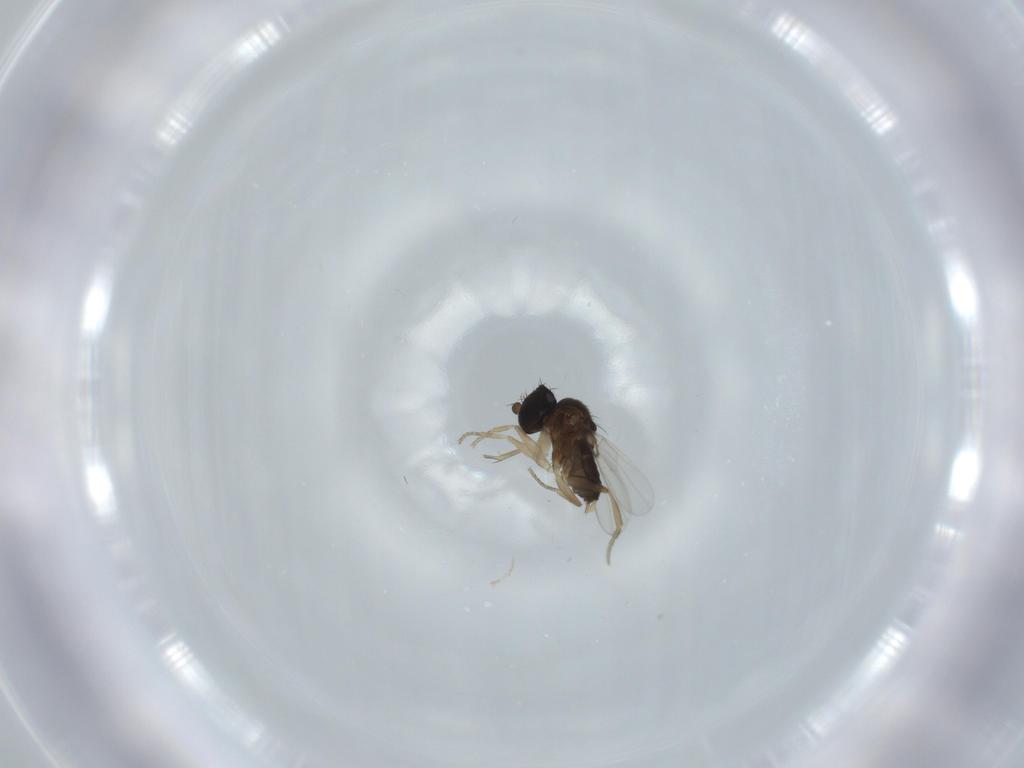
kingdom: Animalia
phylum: Arthropoda
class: Insecta
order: Diptera
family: Phoridae
